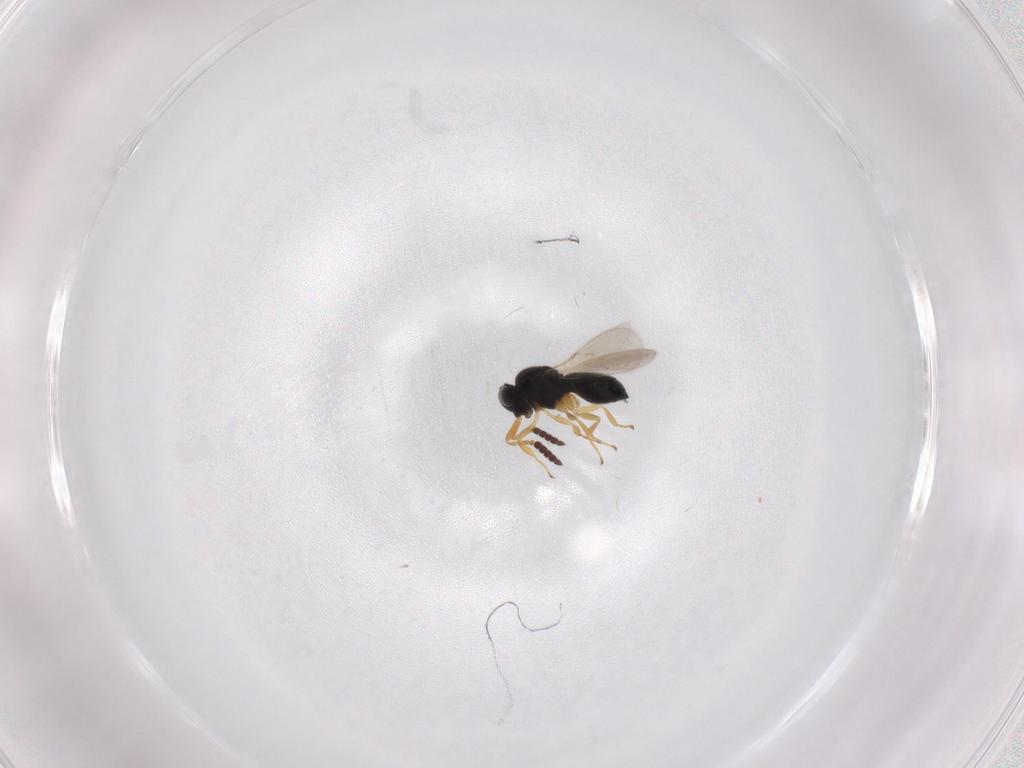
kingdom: Animalia
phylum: Arthropoda
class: Insecta
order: Hymenoptera
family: Scelionidae
